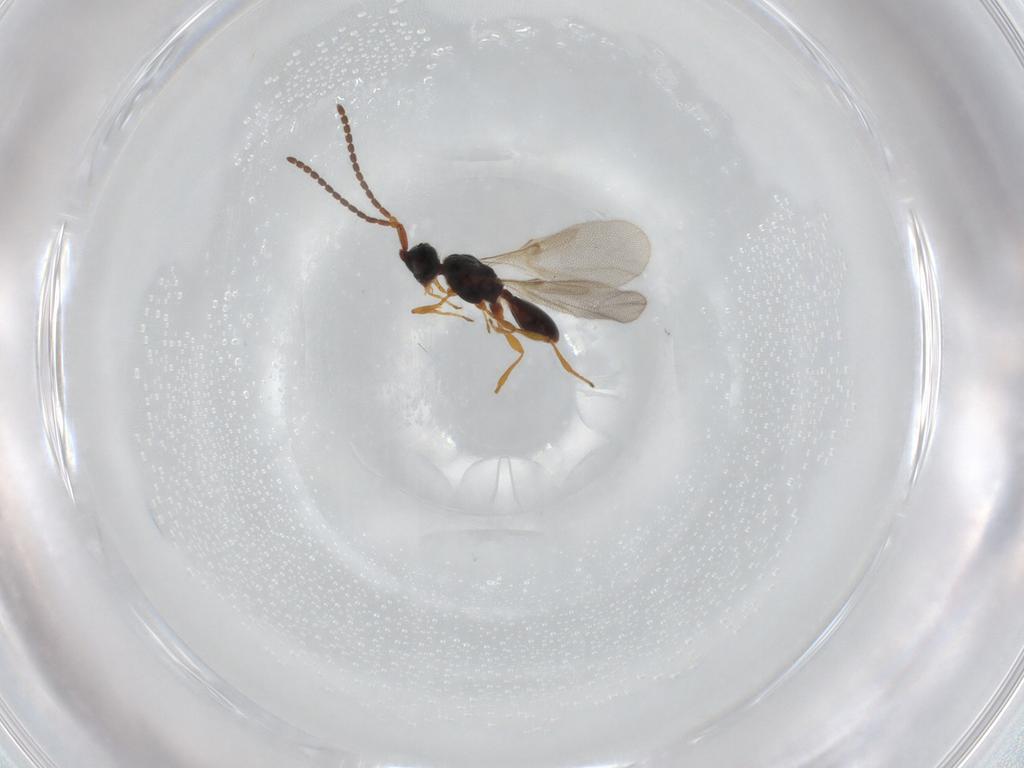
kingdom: Animalia
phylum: Arthropoda
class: Insecta
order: Hymenoptera
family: Diapriidae
